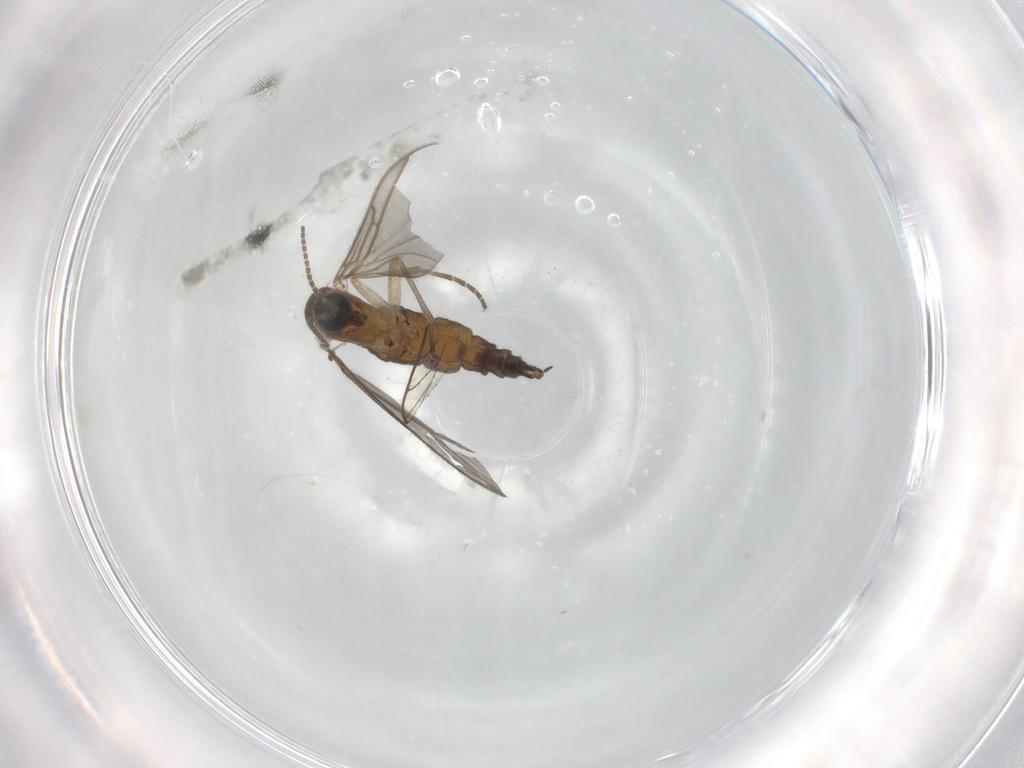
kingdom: Animalia
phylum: Arthropoda
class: Insecta
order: Diptera
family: Sciaridae
